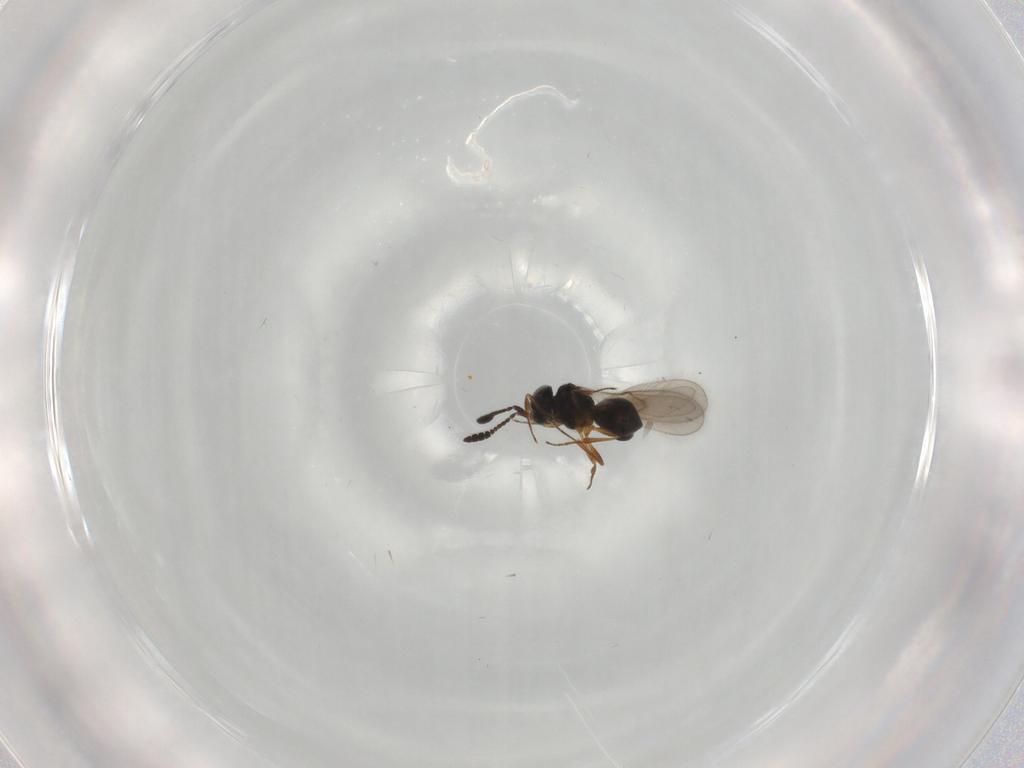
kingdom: Animalia
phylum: Arthropoda
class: Insecta
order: Hymenoptera
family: Scelionidae
